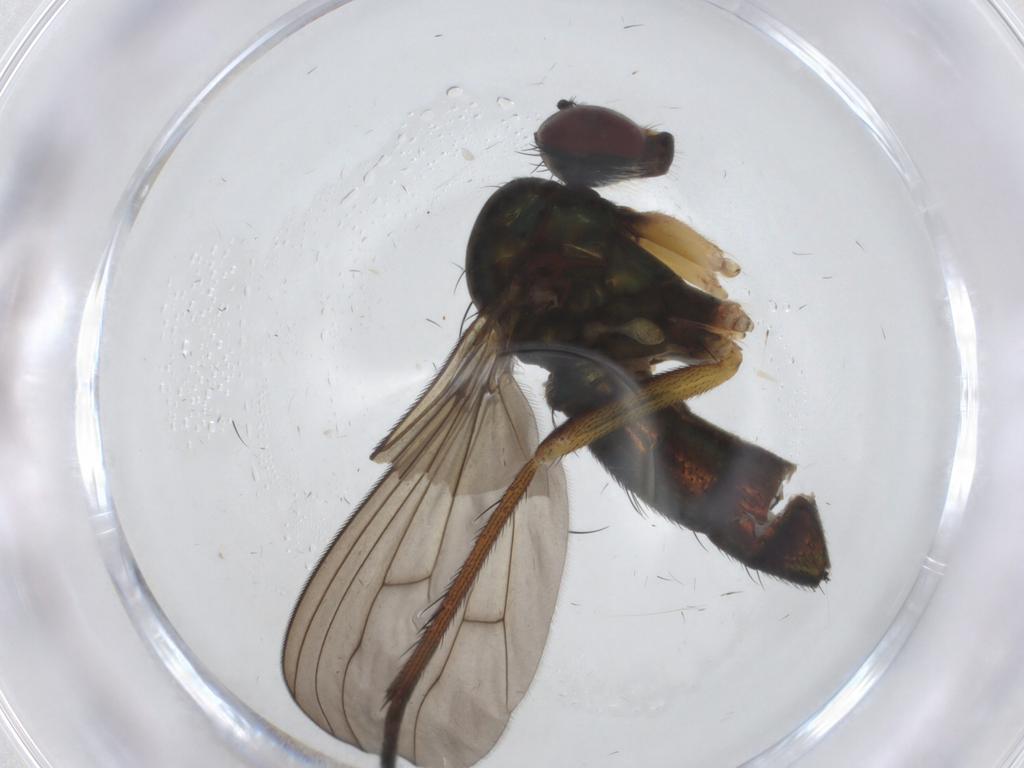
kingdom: Animalia
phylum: Arthropoda
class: Insecta
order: Diptera
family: Dolichopodidae
